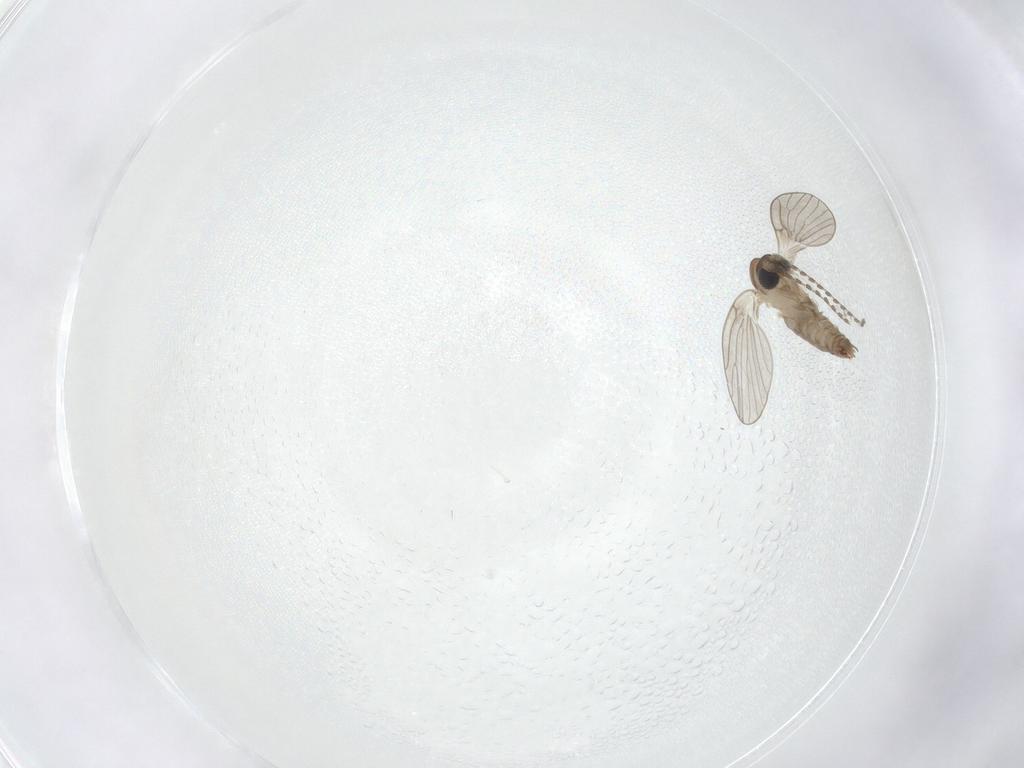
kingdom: Animalia
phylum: Arthropoda
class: Insecta
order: Diptera
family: Psychodidae
